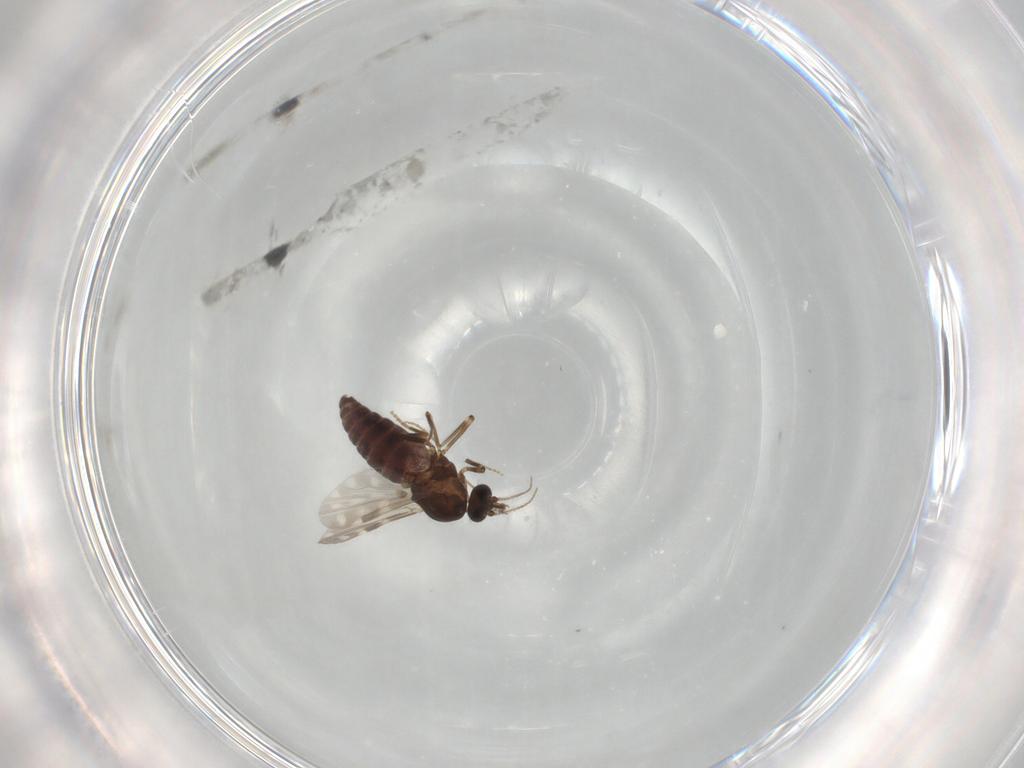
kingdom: Animalia
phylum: Arthropoda
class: Insecta
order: Diptera
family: Ceratopogonidae
